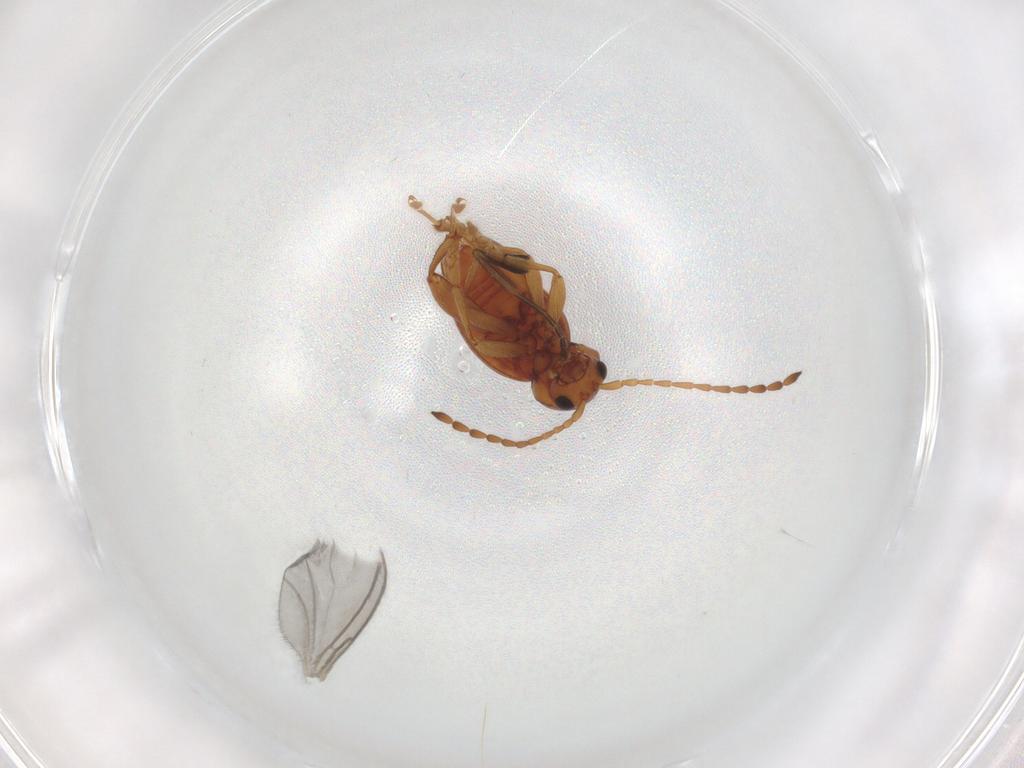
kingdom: Animalia
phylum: Arthropoda
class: Insecta
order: Coleoptera
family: Chrysomelidae
